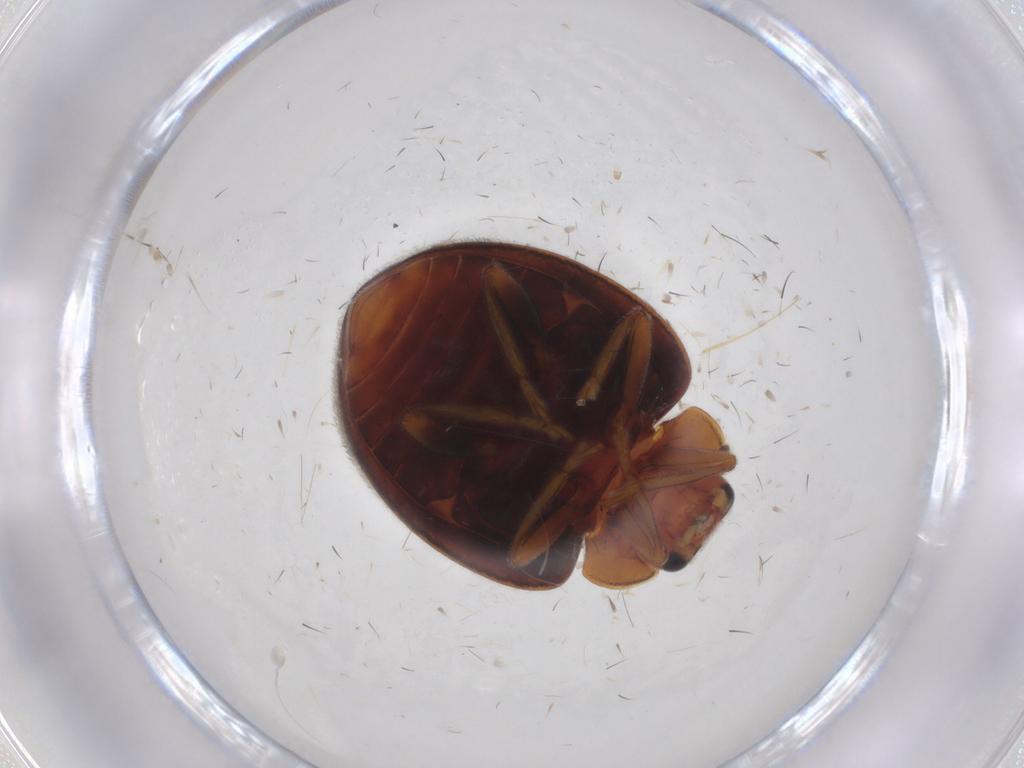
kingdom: Animalia
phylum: Arthropoda
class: Insecta
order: Coleoptera
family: Coccinellidae
